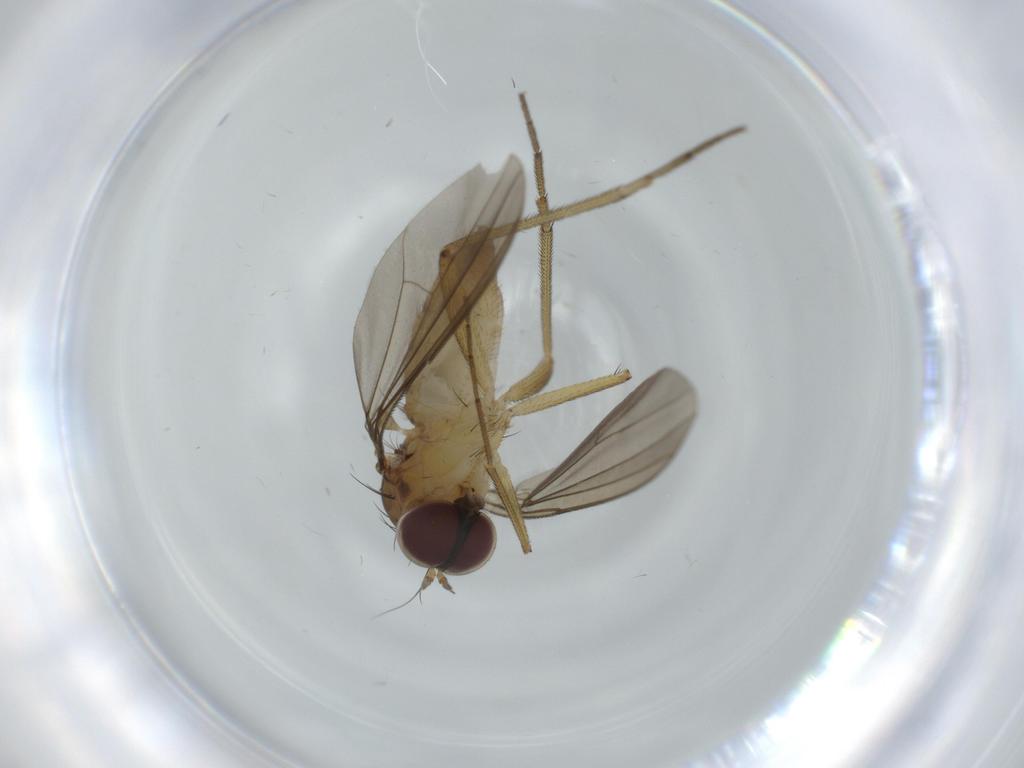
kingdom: Animalia
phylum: Arthropoda
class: Insecta
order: Diptera
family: Dolichopodidae
